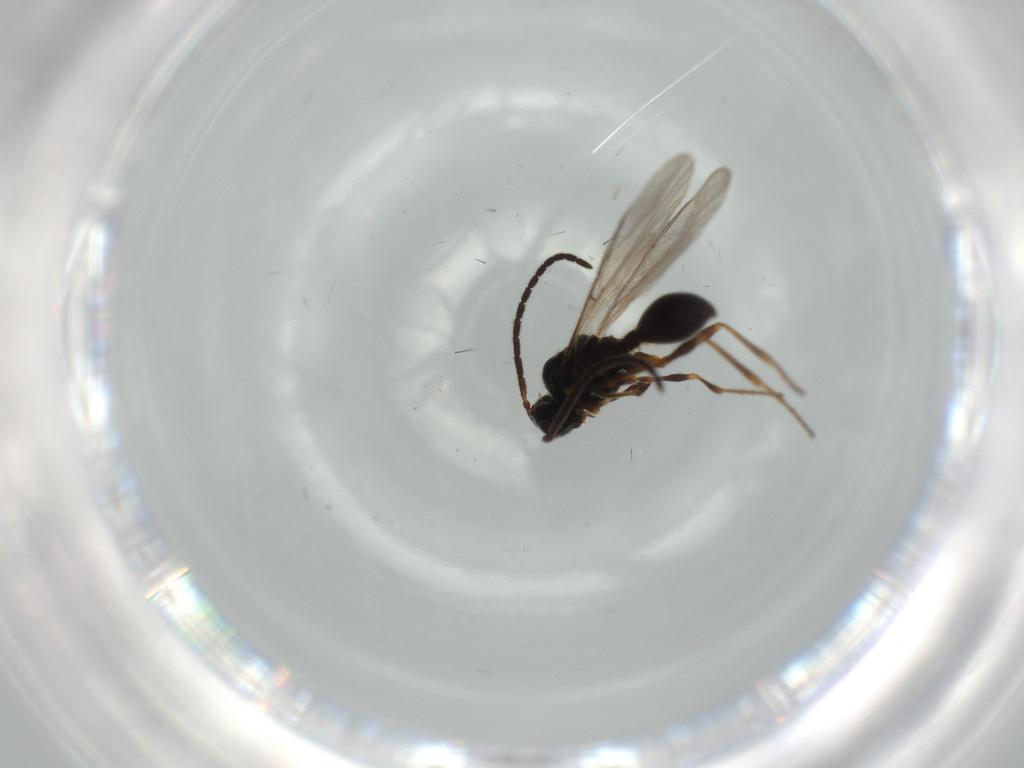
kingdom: Animalia
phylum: Arthropoda
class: Insecta
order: Hymenoptera
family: Diapriidae
